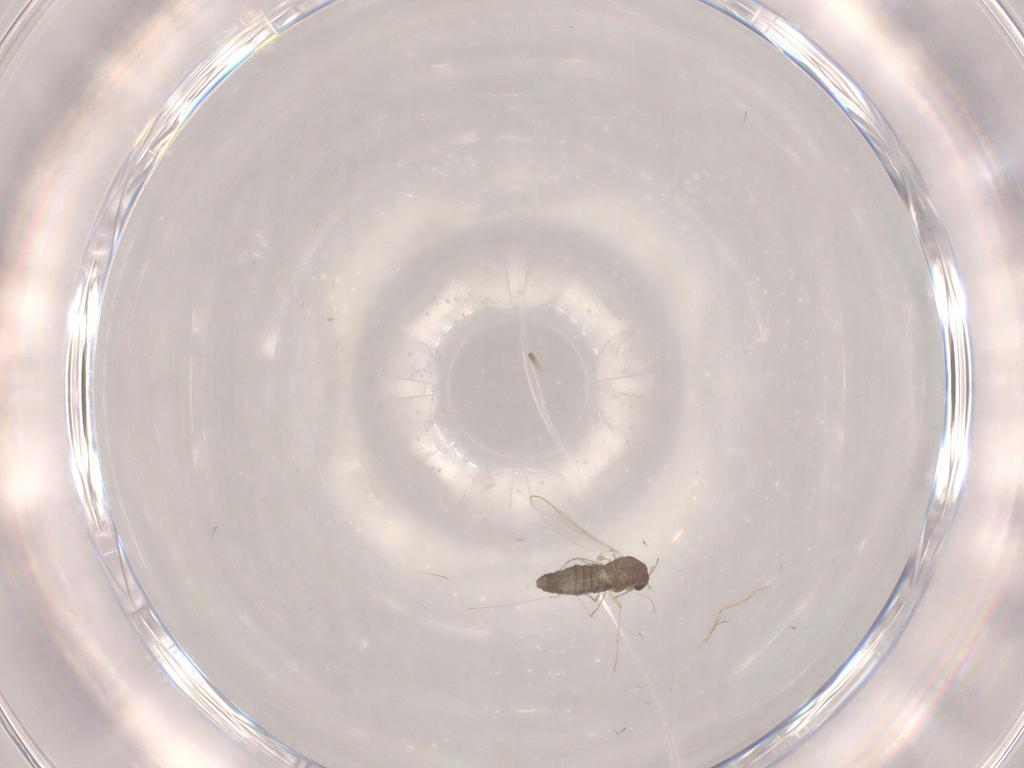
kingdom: Animalia
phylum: Arthropoda
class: Insecta
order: Diptera
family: Chironomidae
